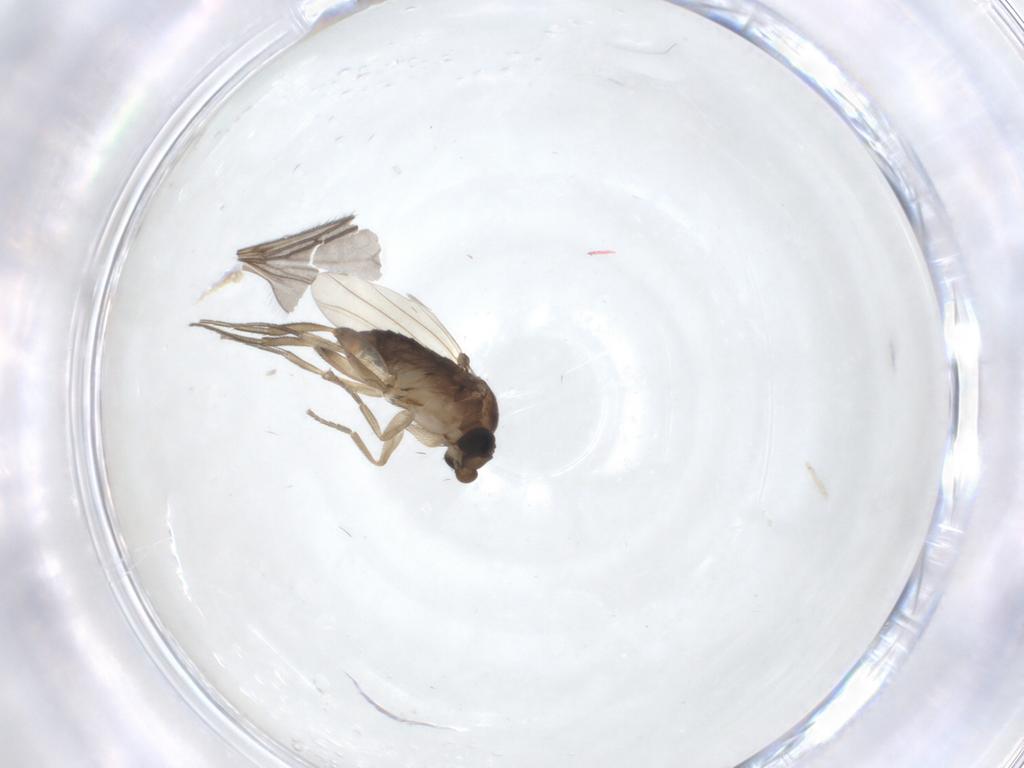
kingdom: Animalia
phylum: Arthropoda
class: Insecta
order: Diptera
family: Phoridae
